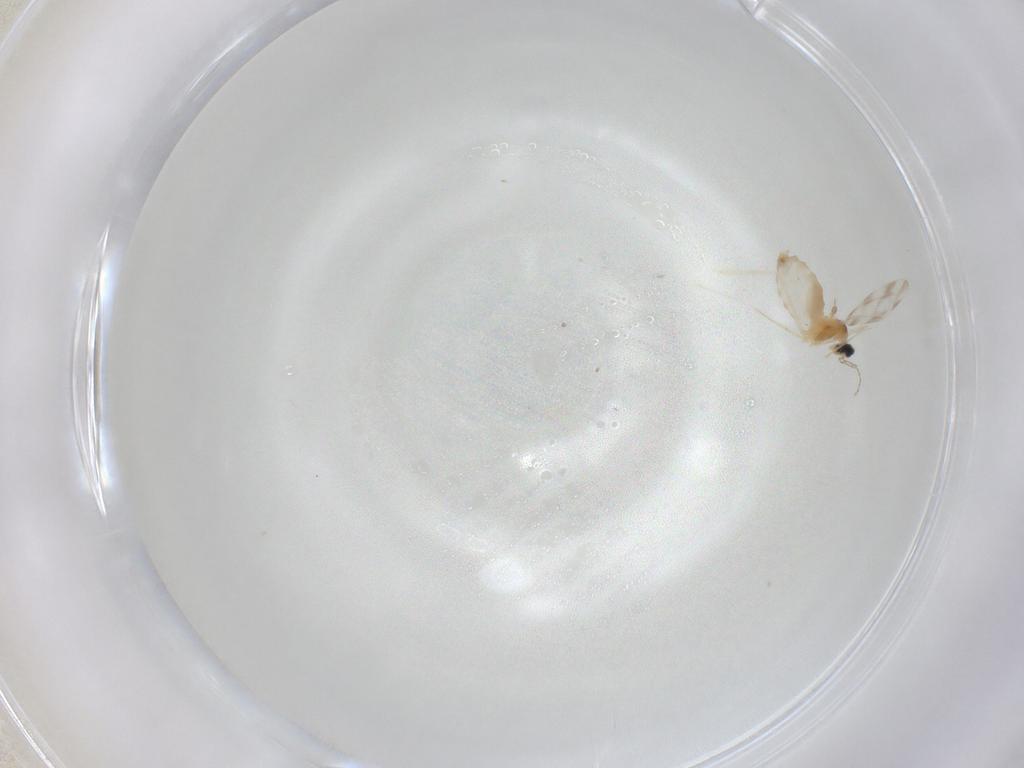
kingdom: Animalia
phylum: Arthropoda
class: Insecta
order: Diptera
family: Cecidomyiidae
